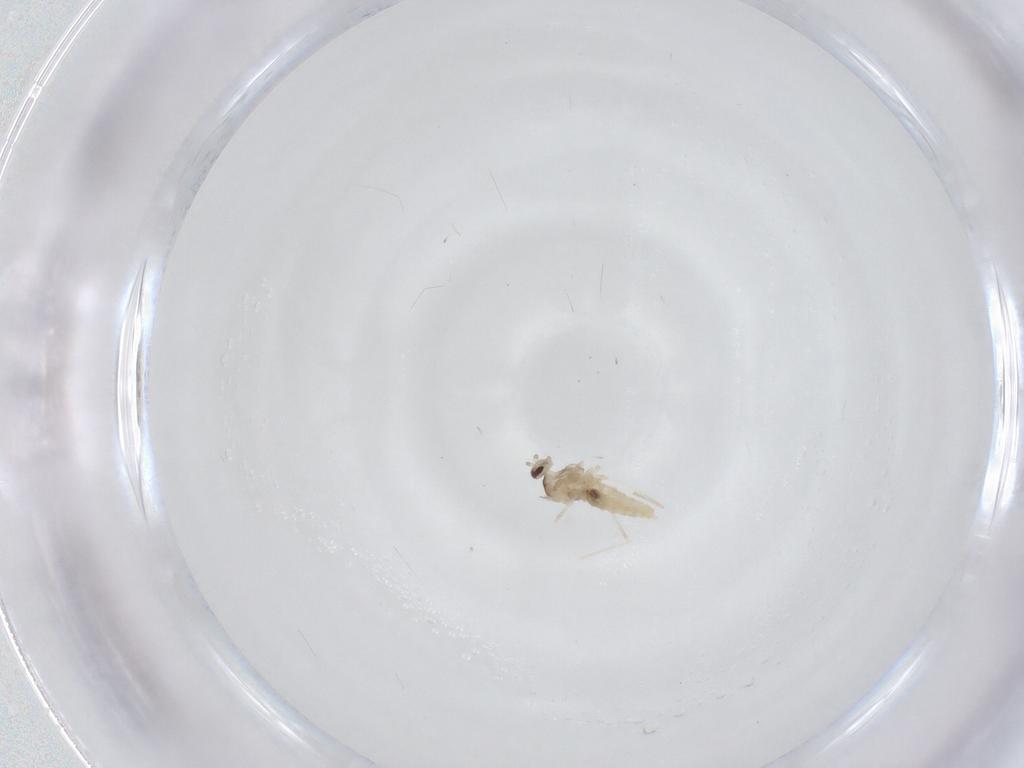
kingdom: Animalia
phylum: Arthropoda
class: Insecta
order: Diptera
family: Cecidomyiidae
